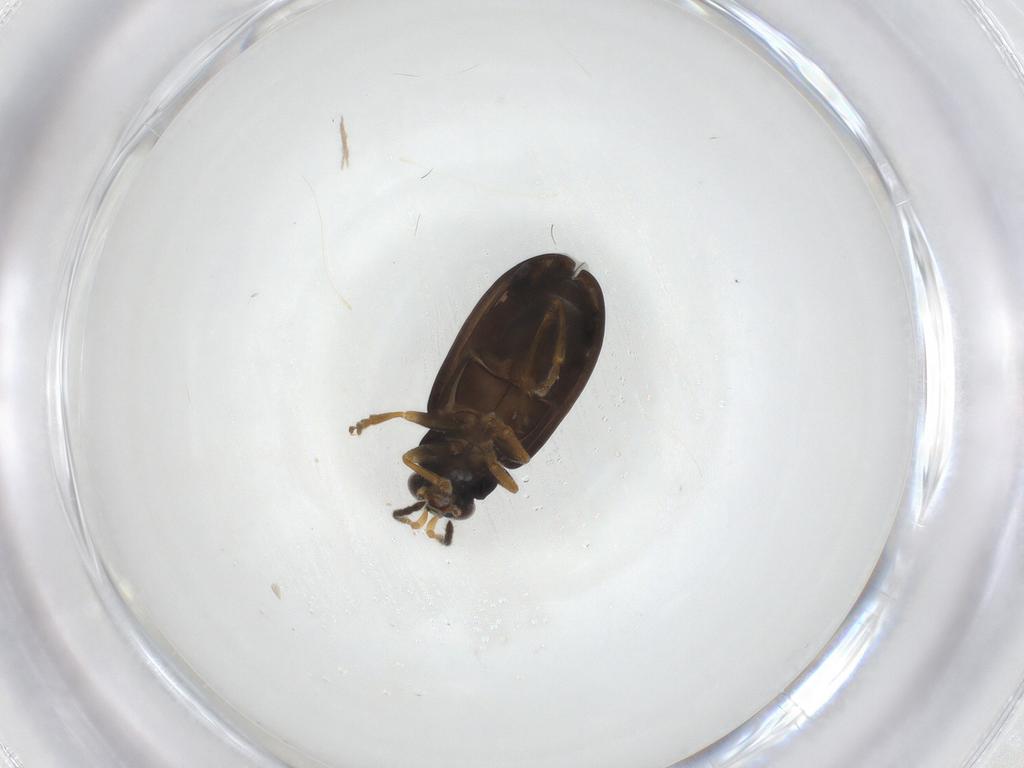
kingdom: Animalia
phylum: Arthropoda
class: Insecta
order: Coleoptera
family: Chrysomelidae
